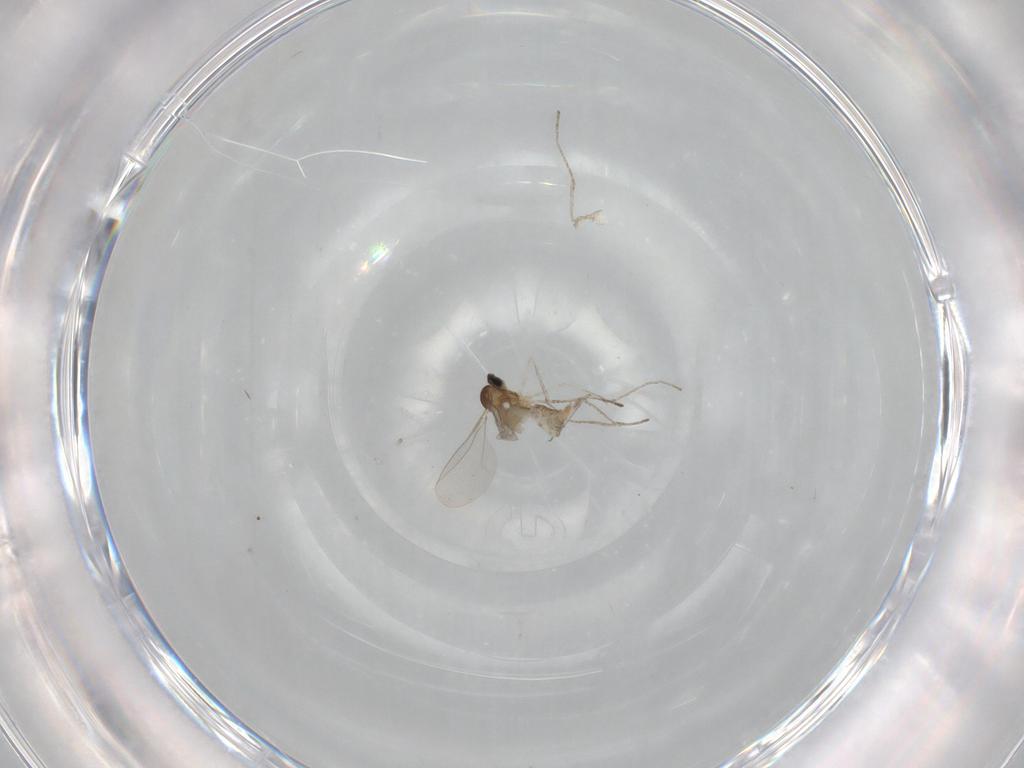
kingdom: Animalia
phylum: Arthropoda
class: Insecta
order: Diptera
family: Cecidomyiidae
